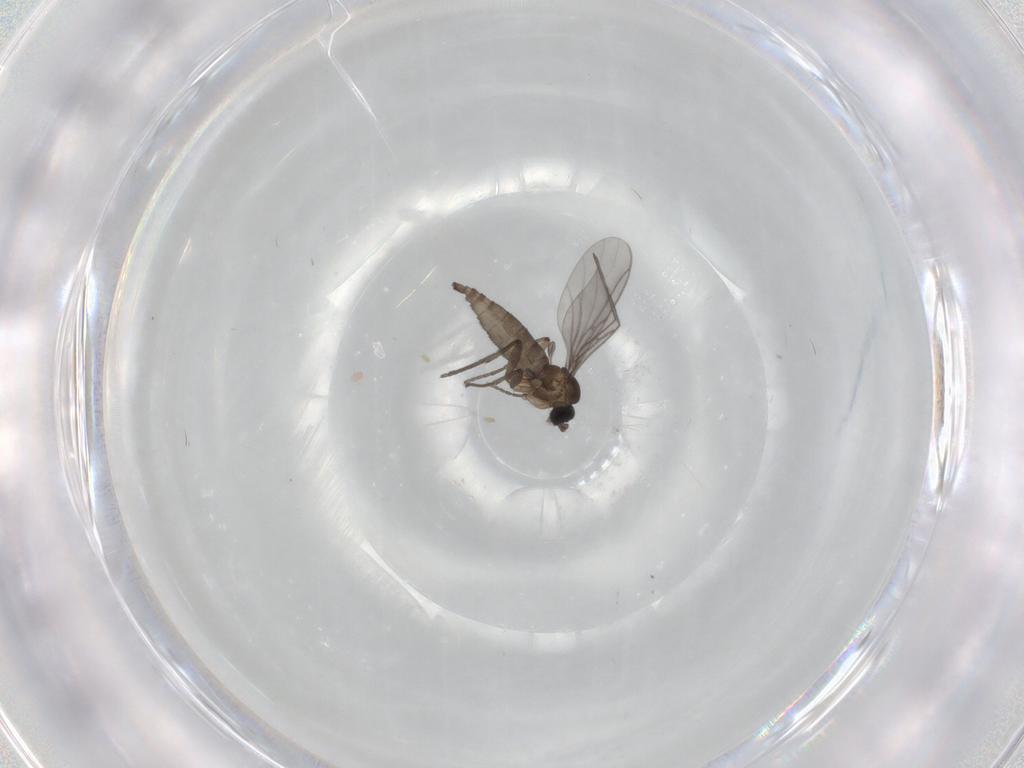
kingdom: Animalia
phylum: Arthropoda
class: Insecta
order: Diptera
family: Sciaridae
